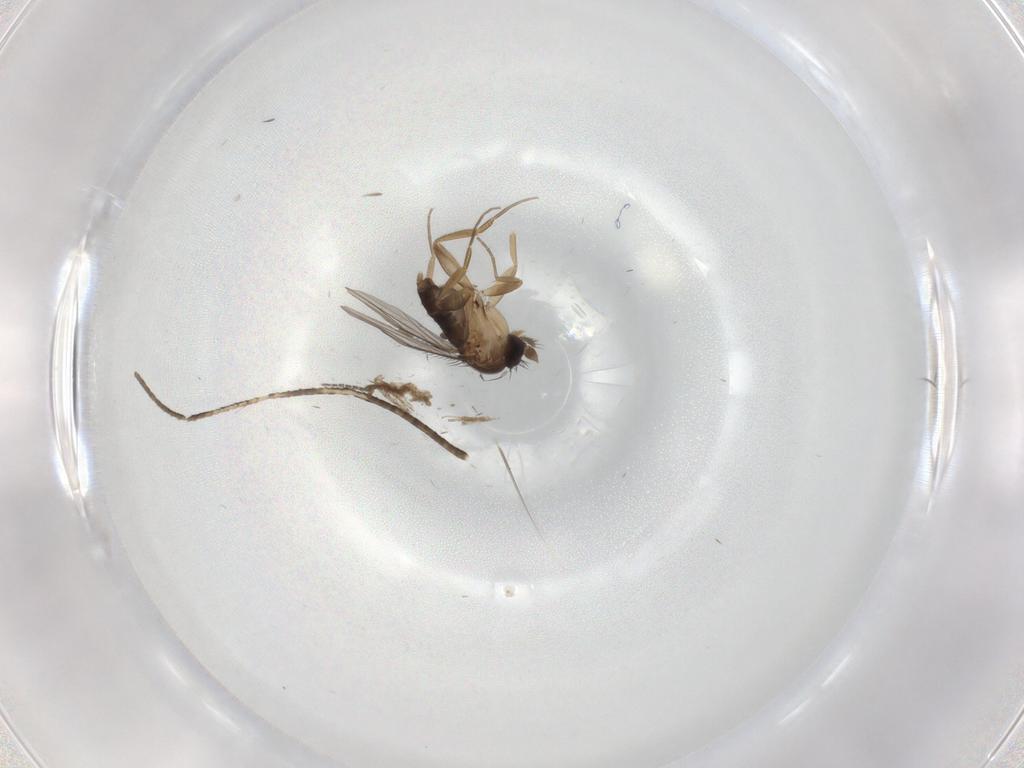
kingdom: Animalia
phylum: Arthropoda
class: Insecta
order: Diptera
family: Sciaridae
